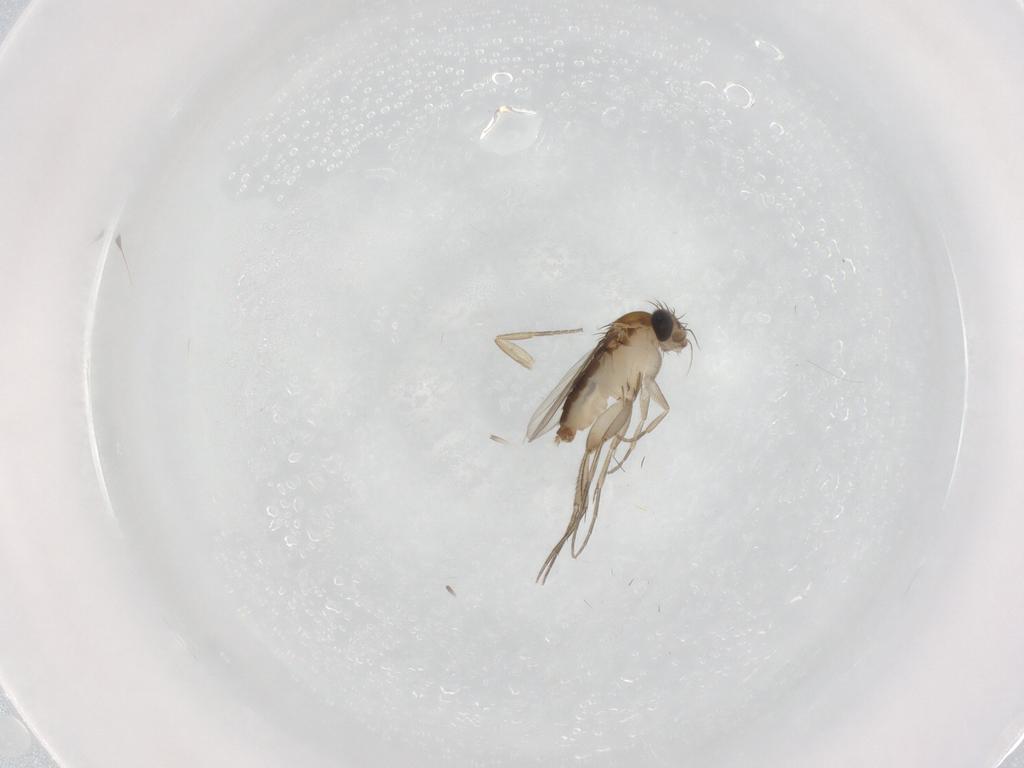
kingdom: Animalia
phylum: Arthropoda
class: Insecta
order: Diptera
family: Phoridae
